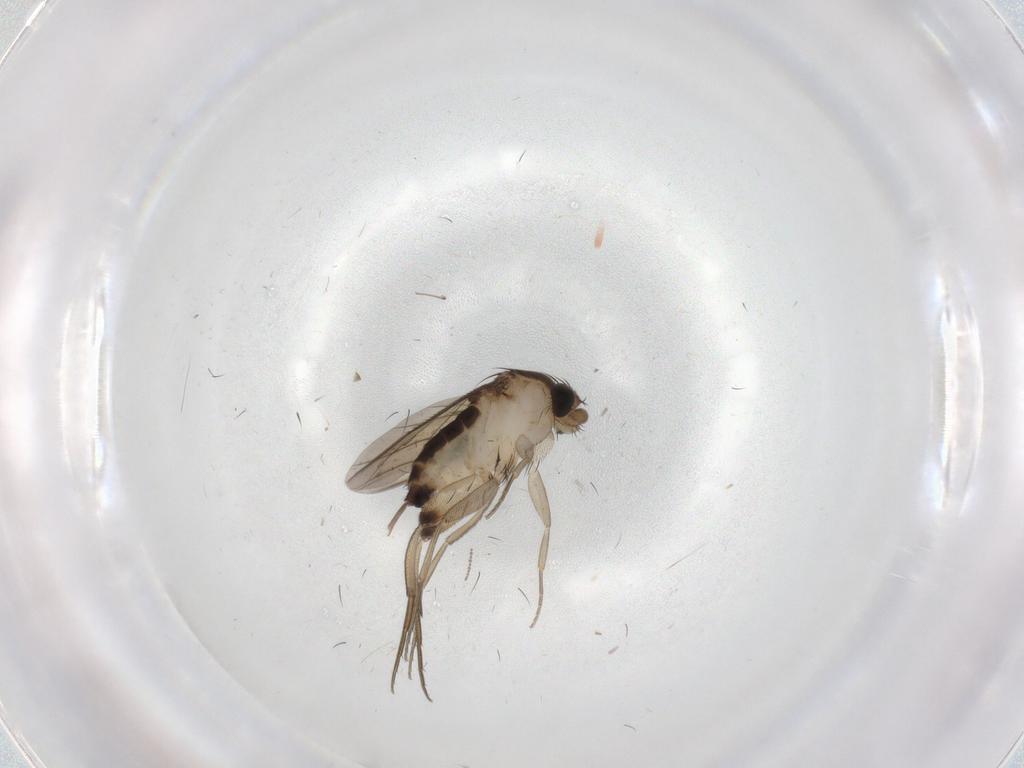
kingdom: Animalia
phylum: Arthropoda
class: Insecta
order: Diptera
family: Phoridae
